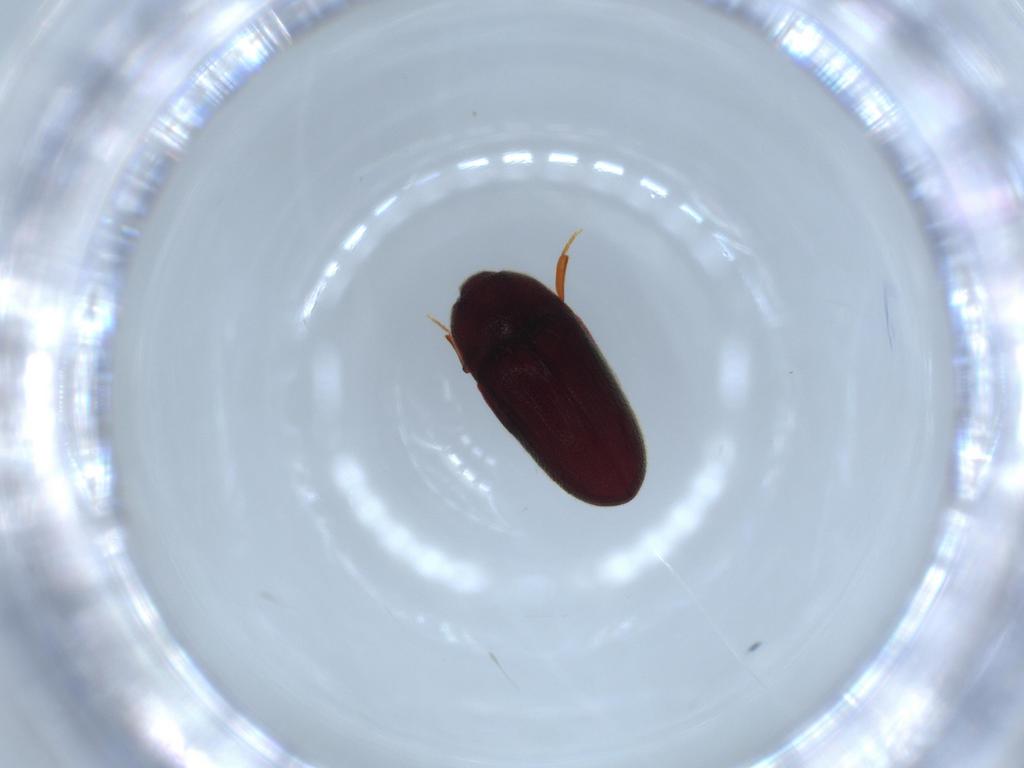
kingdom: Animalia
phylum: Arthropoda
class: Insecta
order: Coleoptera
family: Throscidae
